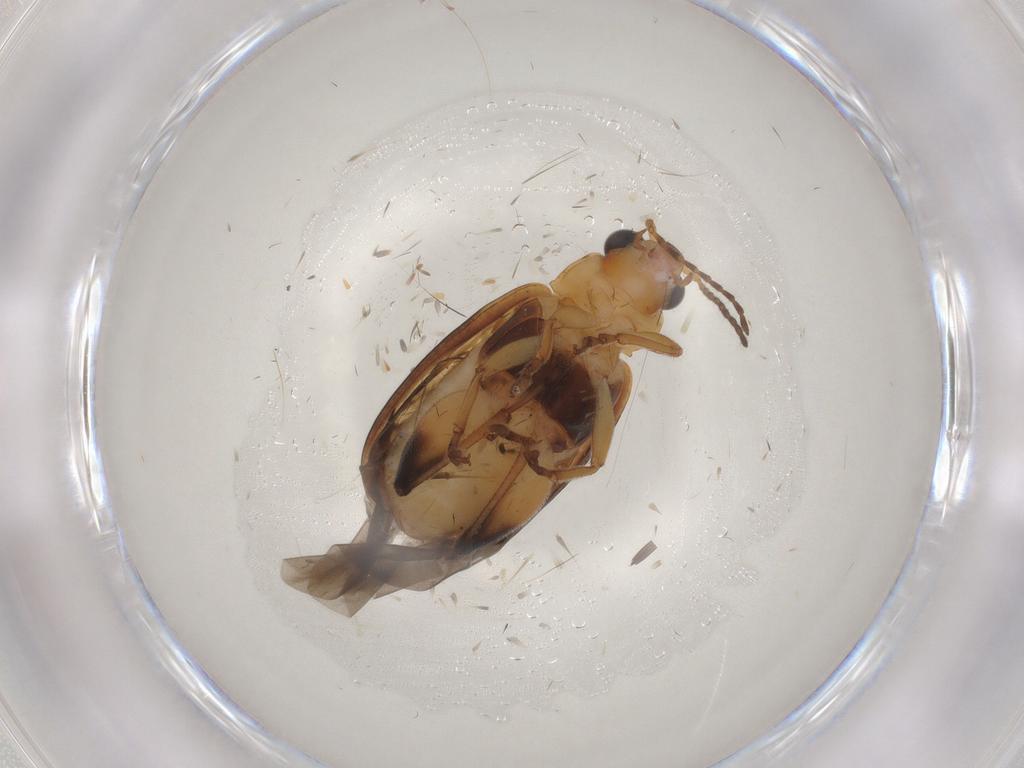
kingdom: Animalia
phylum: Arthropoda
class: Insecta
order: Coleoptera
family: Chrysomelidae
